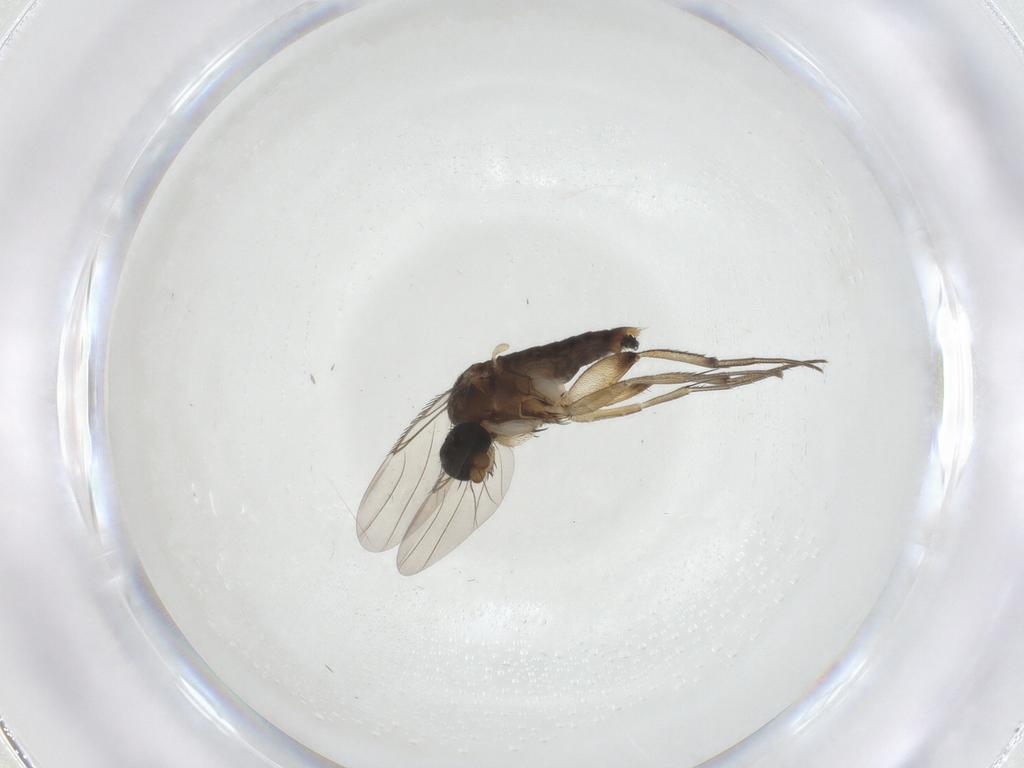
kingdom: Animalia
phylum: Arthropoda
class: Insecta
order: Diptera
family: Phoridae
